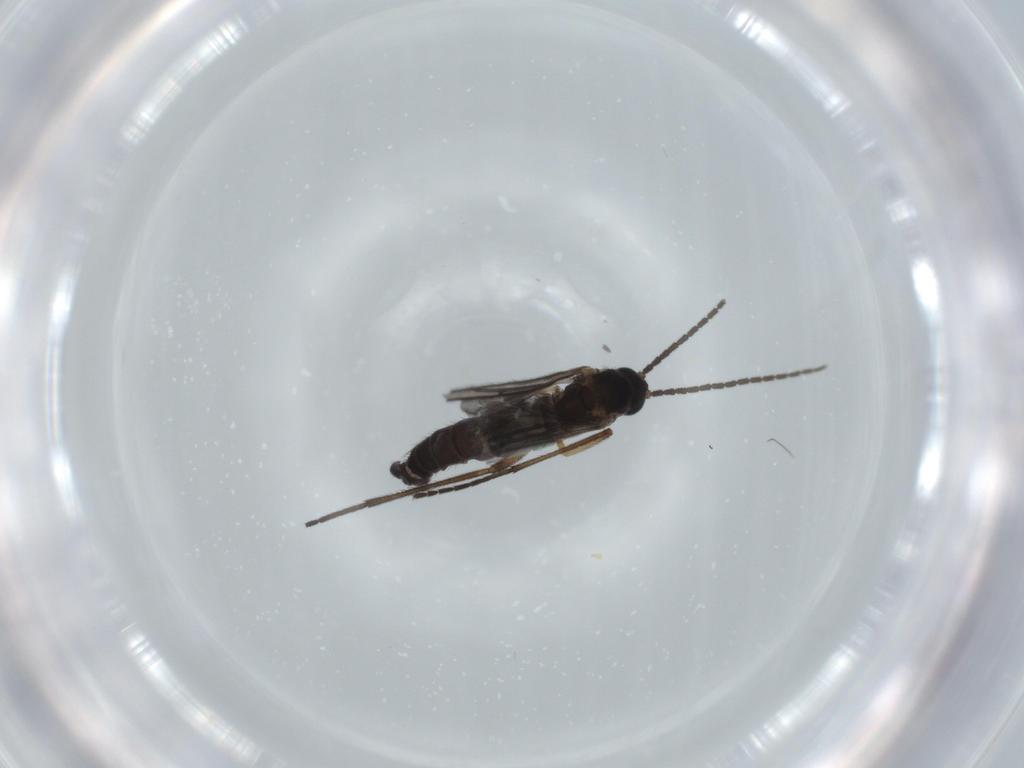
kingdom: Animalia
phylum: Arthropoda
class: Insecta
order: Diptera
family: Sciaridae
